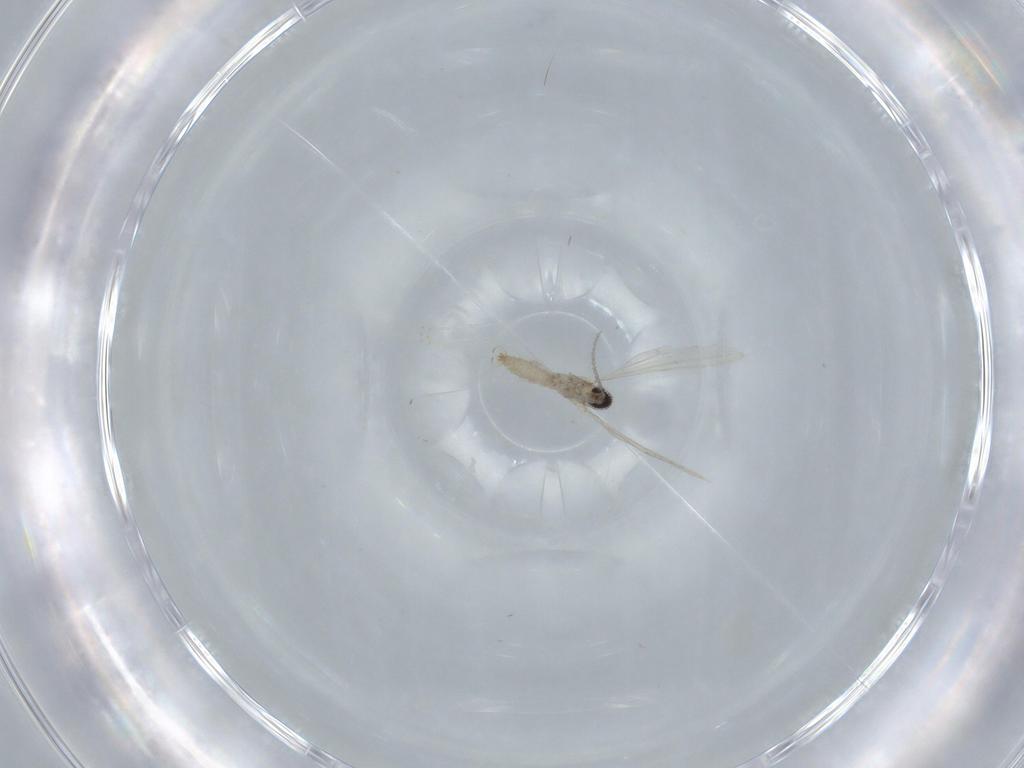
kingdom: Animalia
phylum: Arthropoda
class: Insecta
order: Diptera
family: Cecidomyiidae
